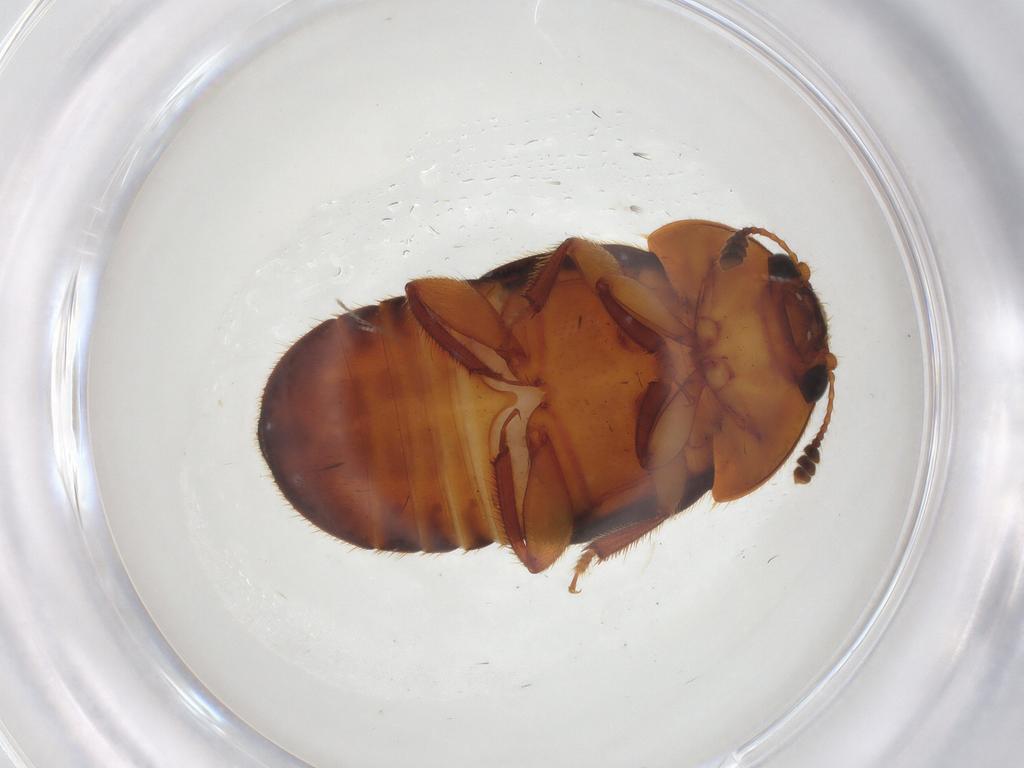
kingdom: Animalia
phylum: Arthropoda
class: Insecta
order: Coleoptera
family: Nitidulidae
